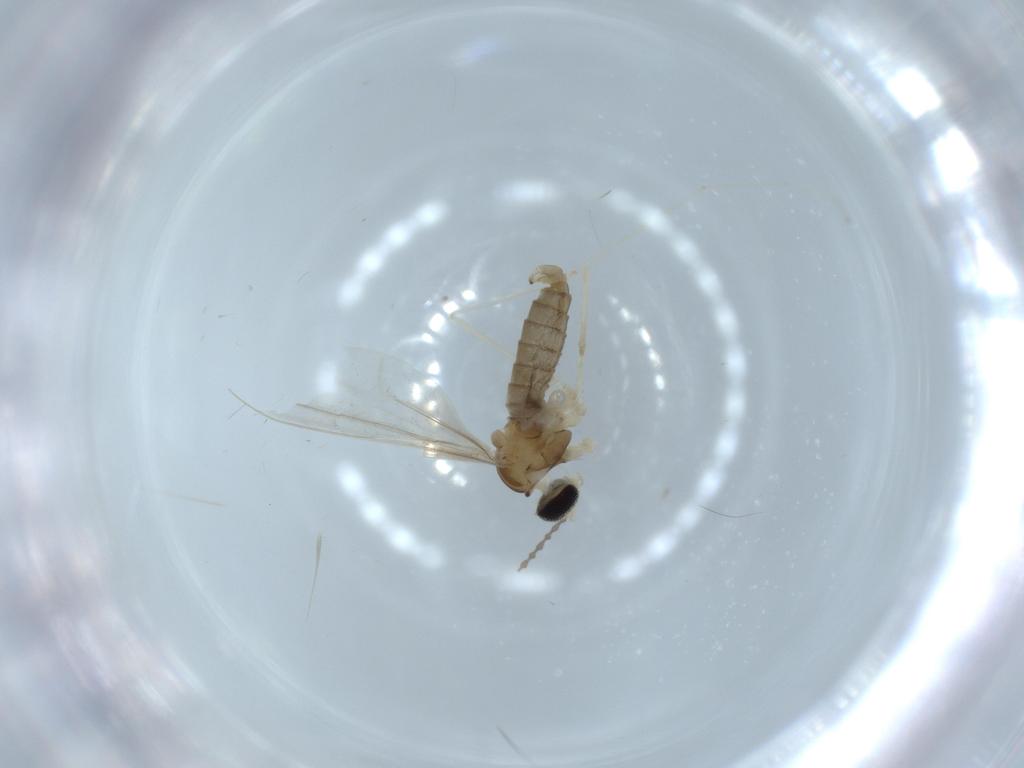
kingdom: Animalia
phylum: Arthropoda
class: Insecta
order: Diptera
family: Cecidomyiidae
